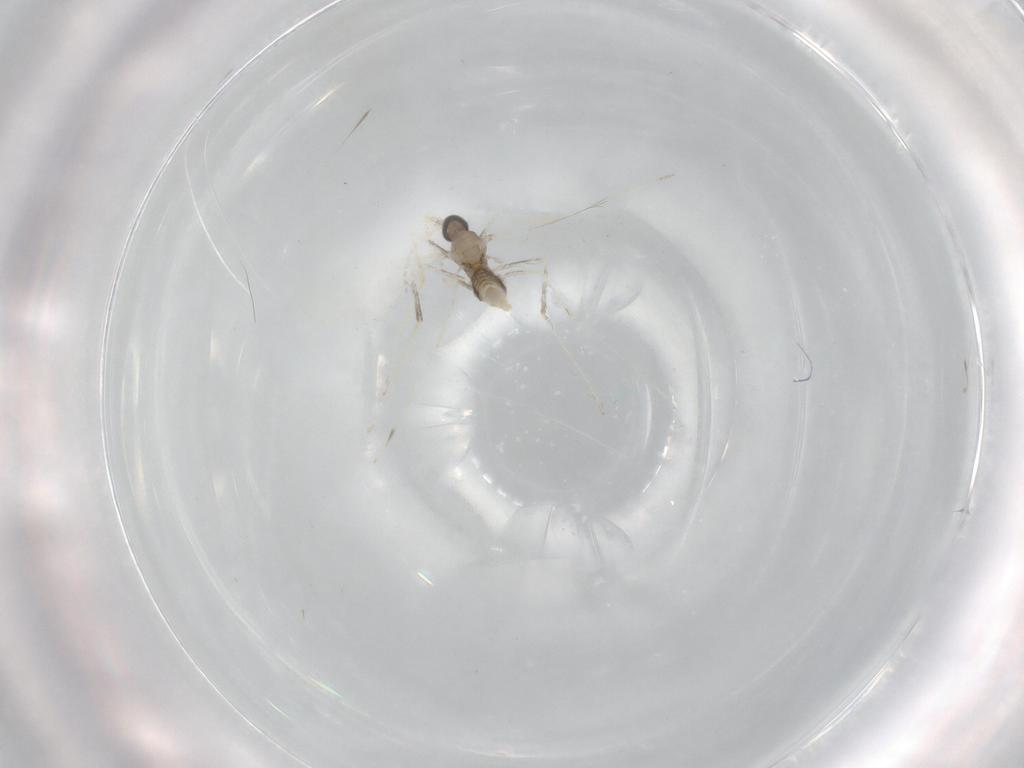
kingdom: Animalia
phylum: Arthropoda
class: Insecta
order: Diptera
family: Cecidomyiidae
